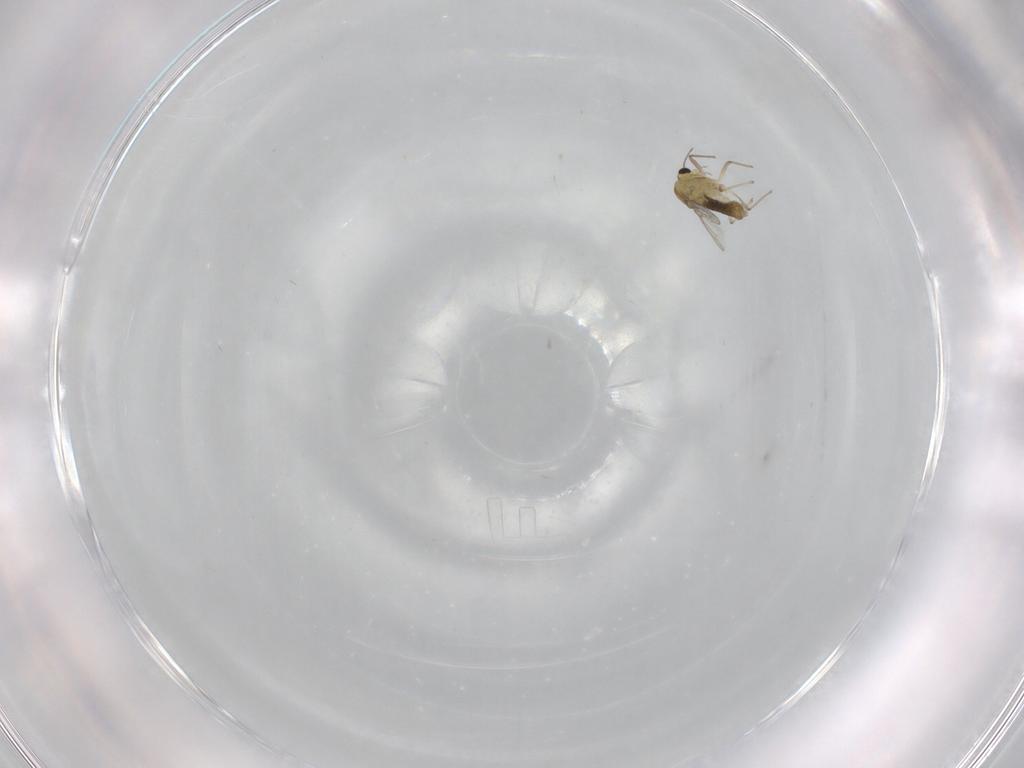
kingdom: Animalia
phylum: Arthropoda
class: Insecta
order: Diptera
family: Chironomidae
